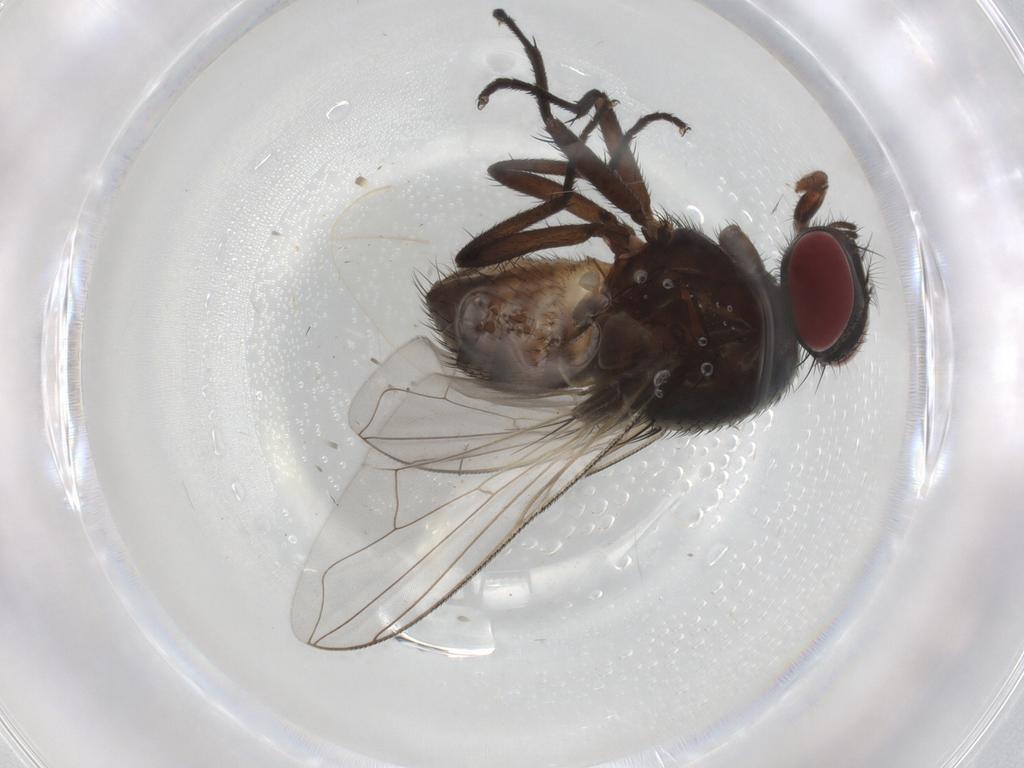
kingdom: Animalia
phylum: Arthropoda
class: Insecta
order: Diptera
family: Muscidae
